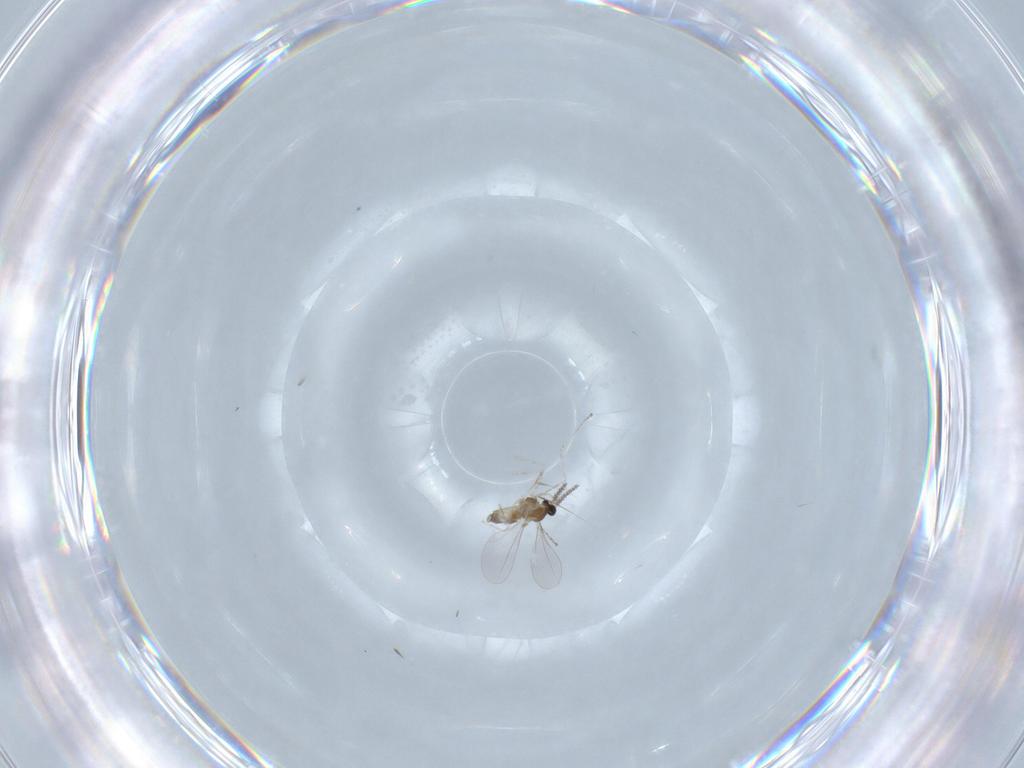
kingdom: Animalia
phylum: Arthropoda
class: Insecta
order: Diptera
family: Cecidomyiidae
